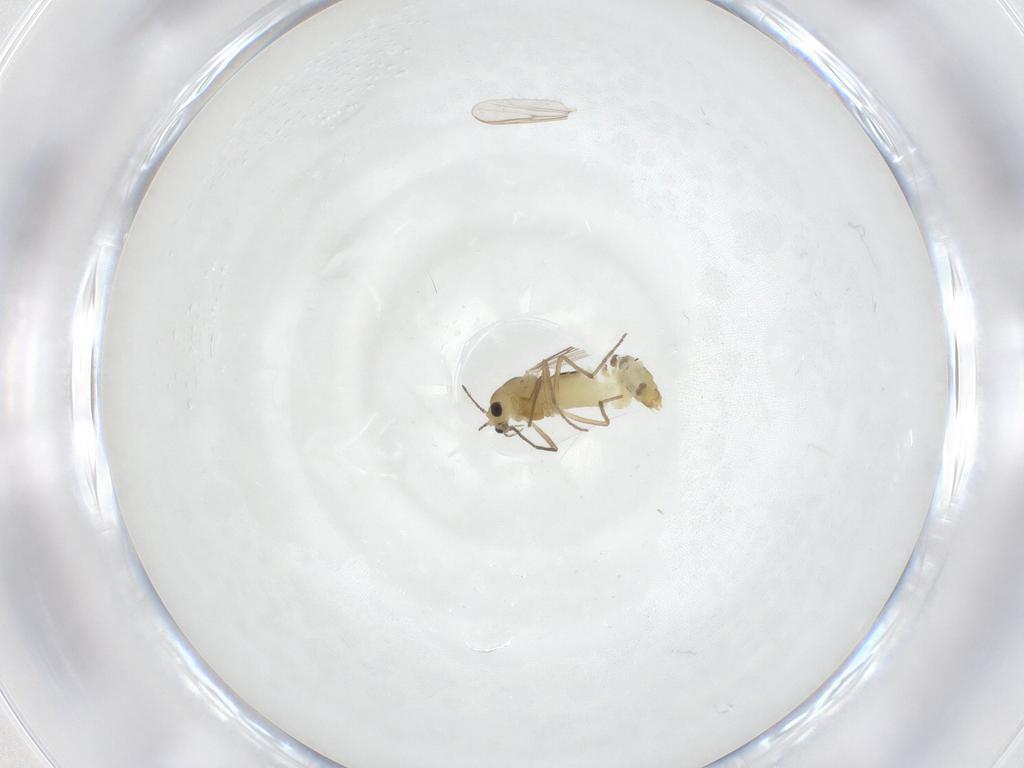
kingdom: Animalia
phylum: Arthropoda
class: Insecta
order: Diptera
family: Chironomidae
